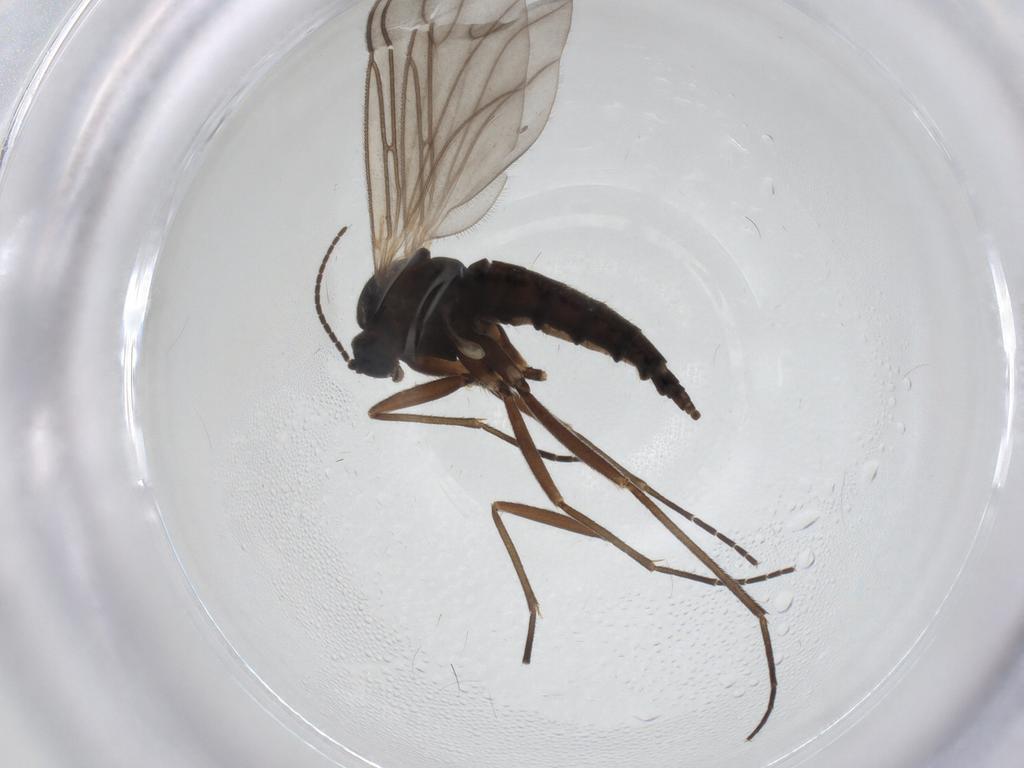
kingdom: Animalia
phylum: Arthropoda
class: Insecta
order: Diptera
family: Sciaridae
